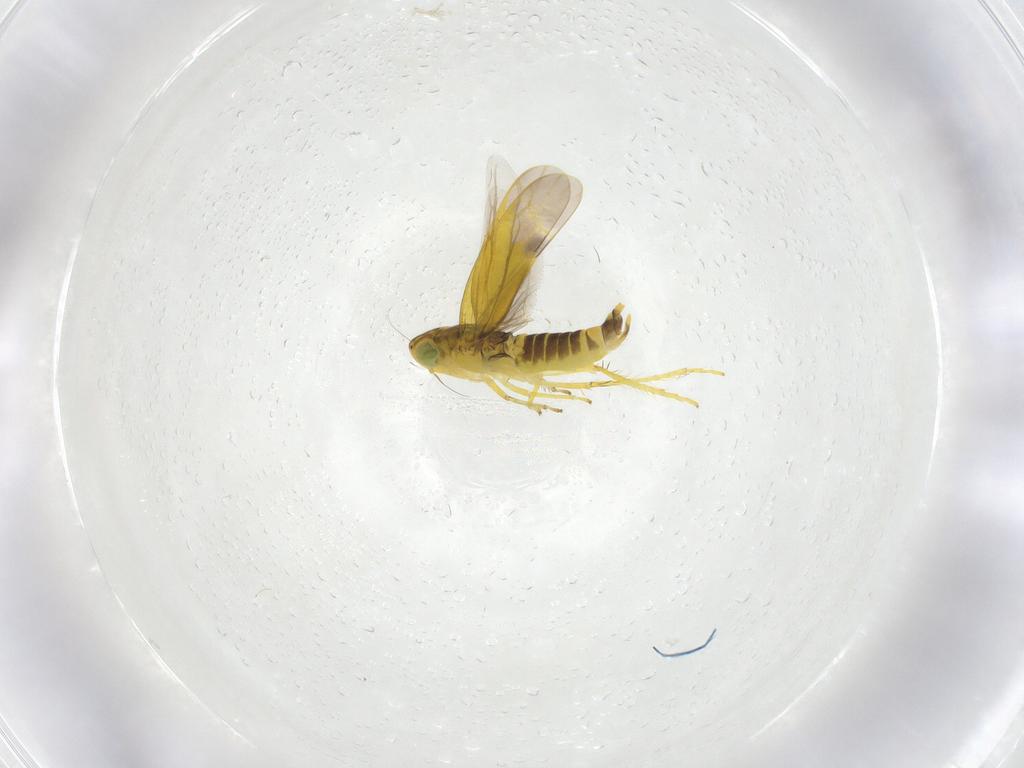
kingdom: Animalia
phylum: Arthropoda
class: Insecta
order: Hemiptera
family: Cicadellidae
